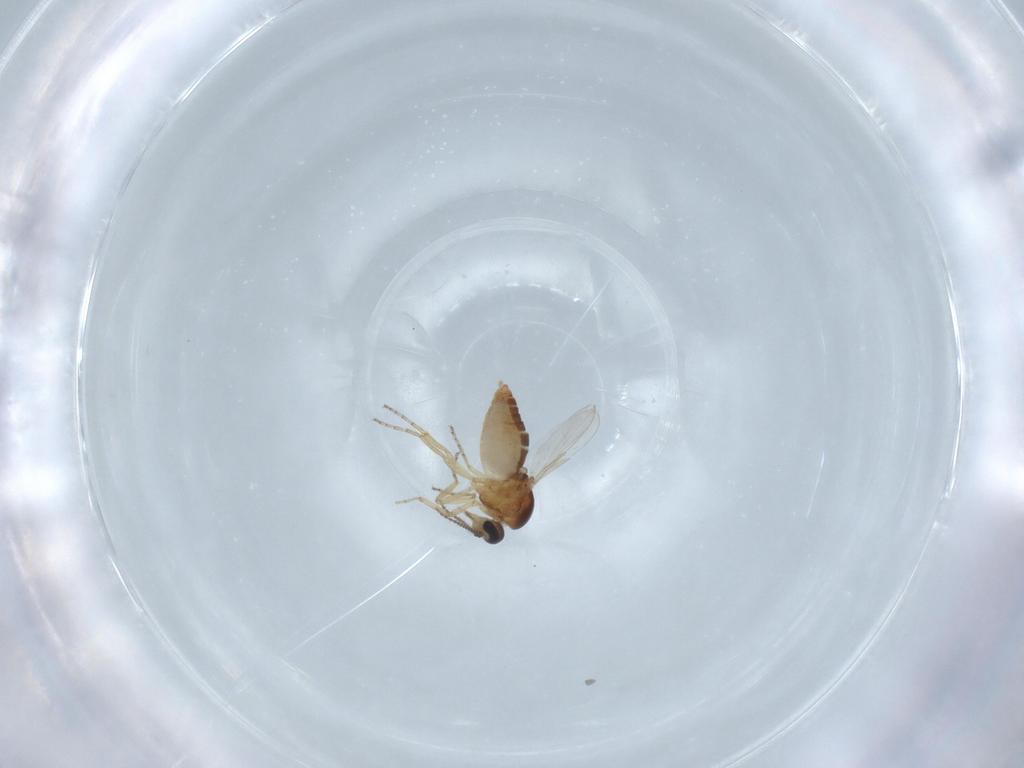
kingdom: Animalia
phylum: Arthropoda
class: Insecta
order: Diptera
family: Ceratopogonidae
